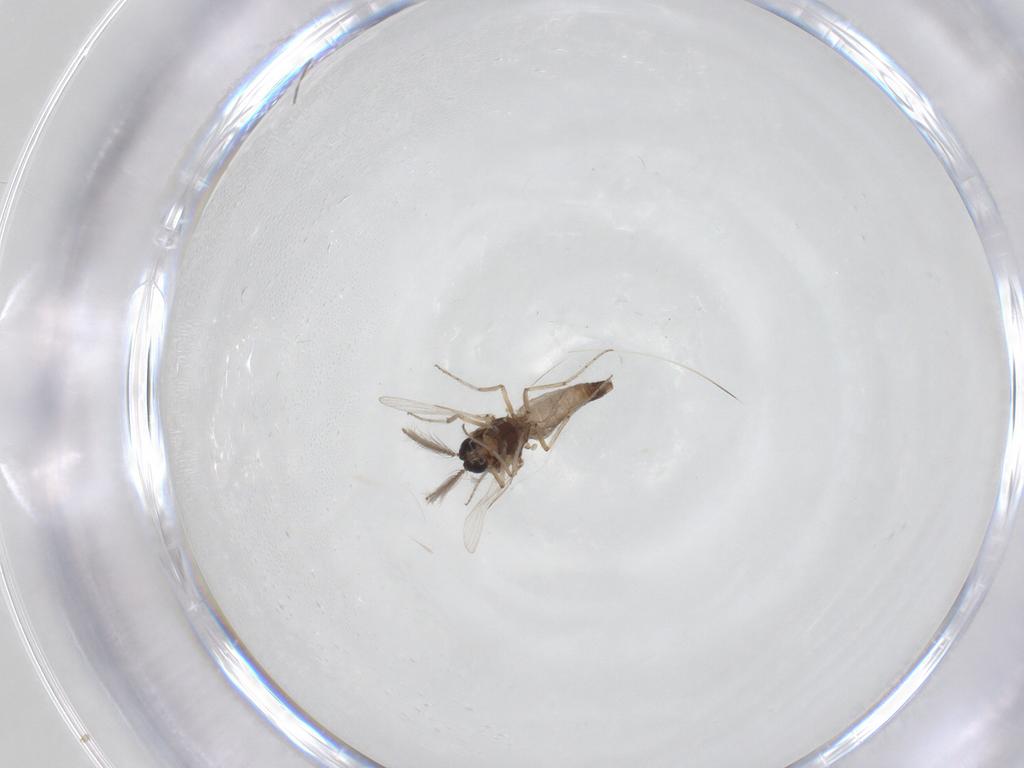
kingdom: Animalia
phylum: Arthropoda
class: Insecta
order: Diptera
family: Ceratopogonidae
